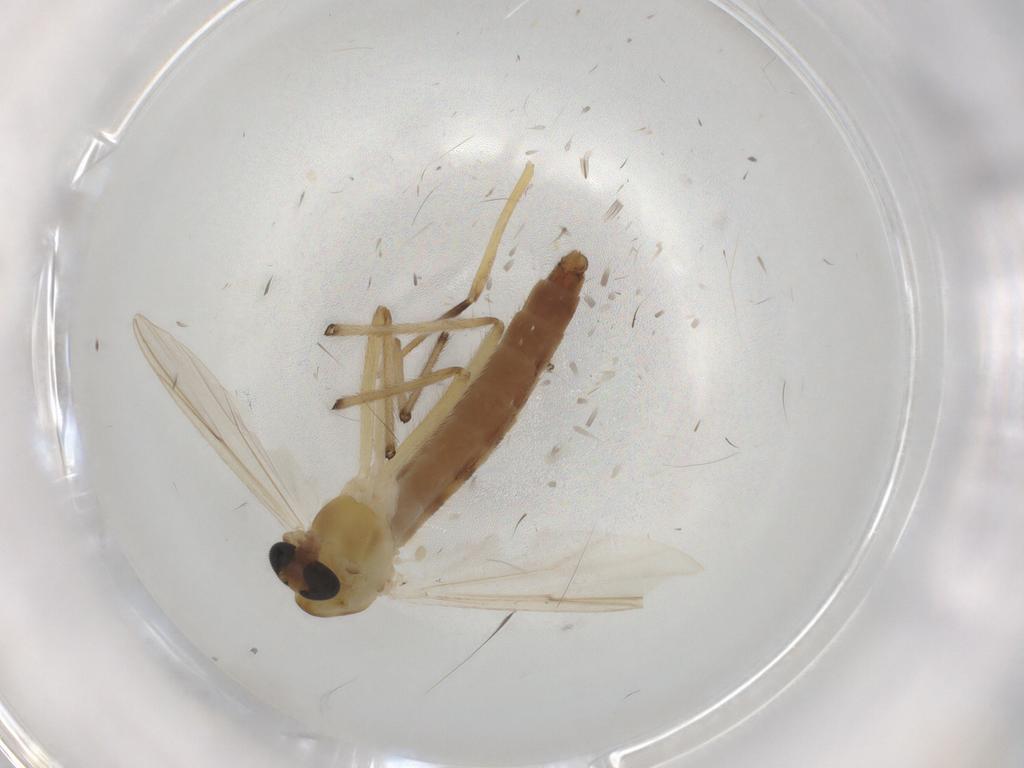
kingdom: Animalia
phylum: Arthropoda
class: Insecta
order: Diptera
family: Chironomidae
